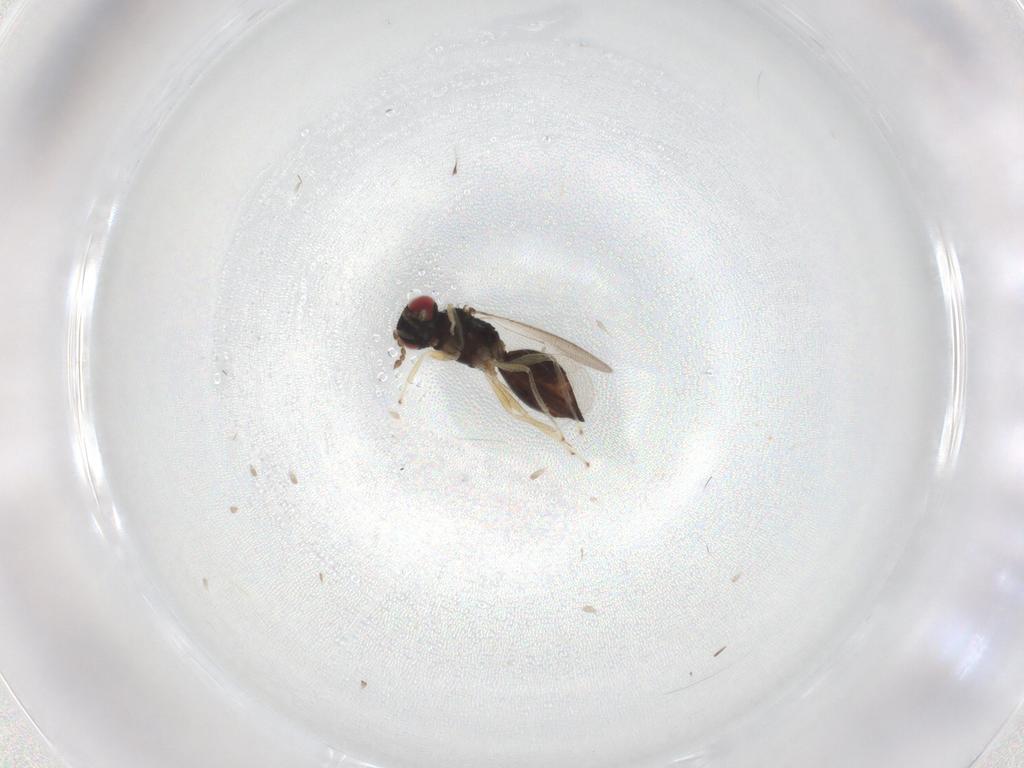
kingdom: Animalia
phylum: Arthropoda
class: Insecta
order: Hymenoptera
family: Eulophidae
